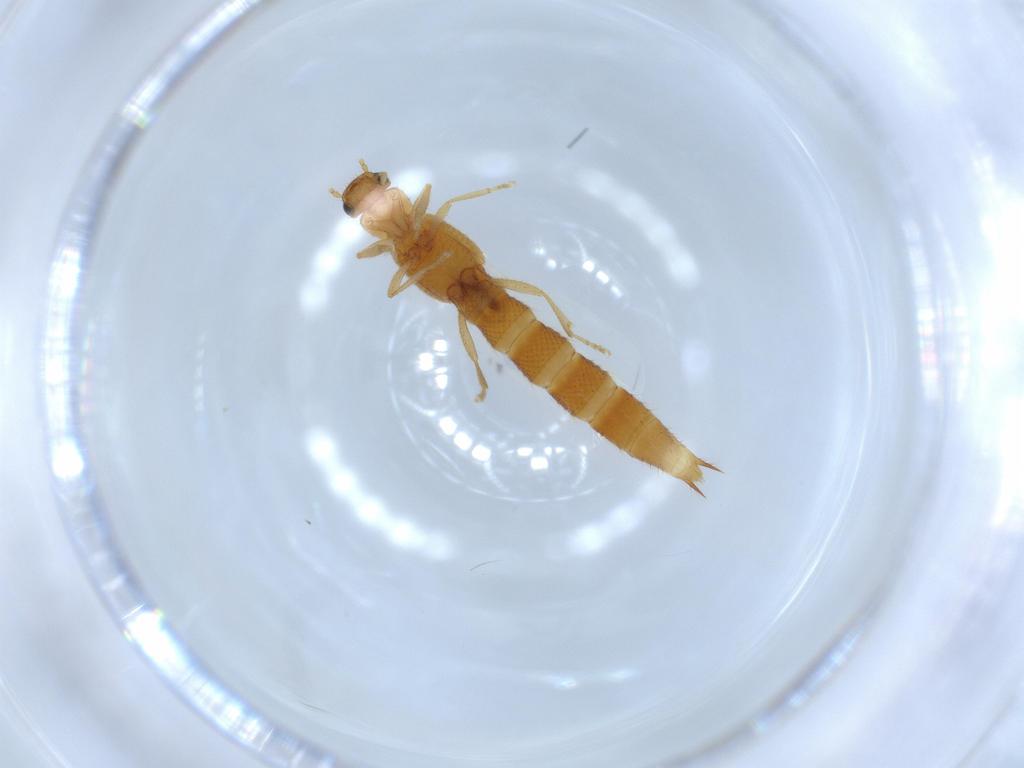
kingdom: Animalia
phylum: Arthropoda
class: Insecta
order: Coleoptera
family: Staphylinidae
